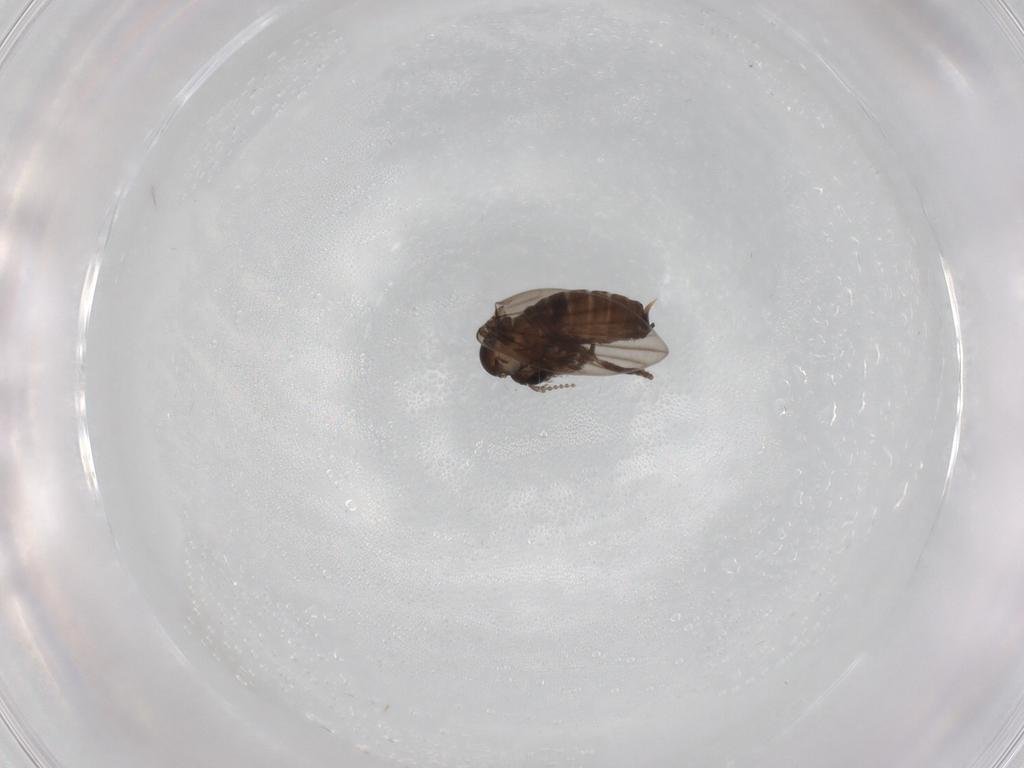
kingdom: Animalia
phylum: Arthropoda
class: Insecta
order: Diptera
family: Psychodidae
